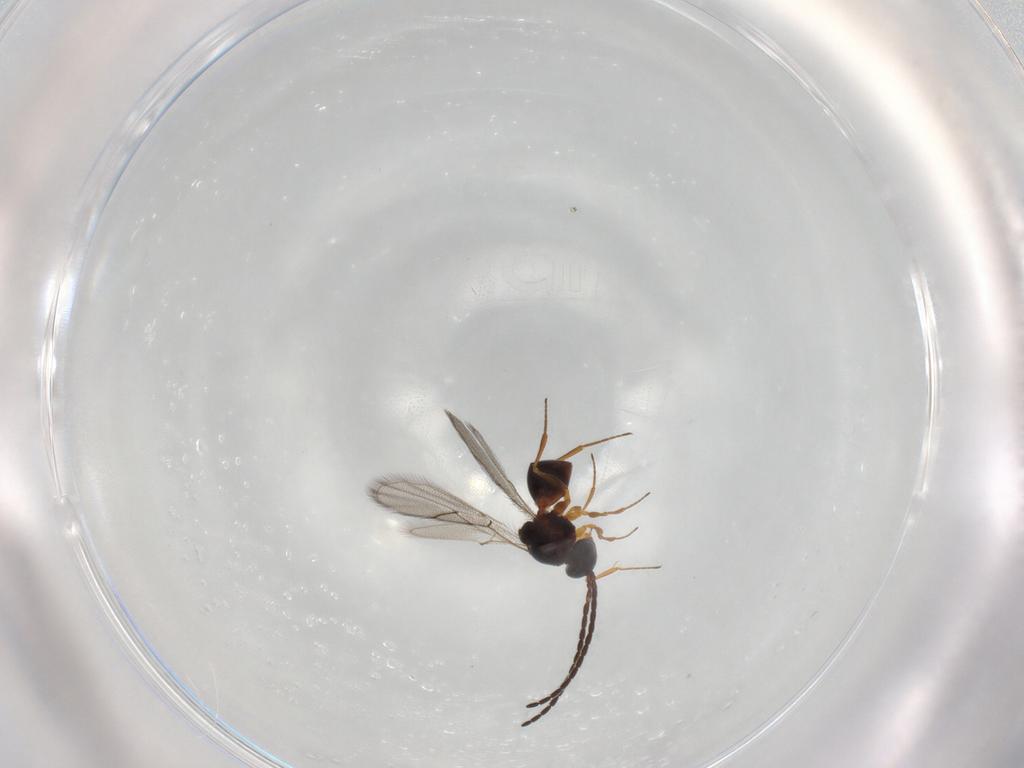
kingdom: Animalia
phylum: Arthropoda
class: Insecta
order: Hymenoptera
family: Figitidae
